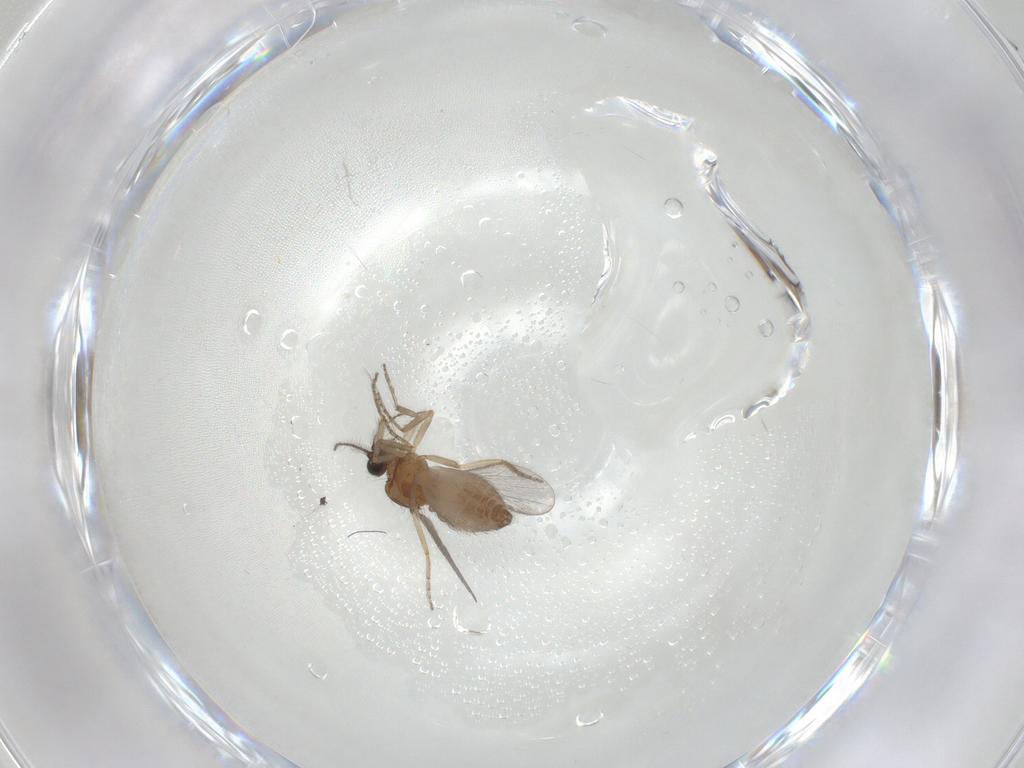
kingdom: Animalia
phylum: Arthropoda
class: Insecta
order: Diptera
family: Ceratopogonidae
